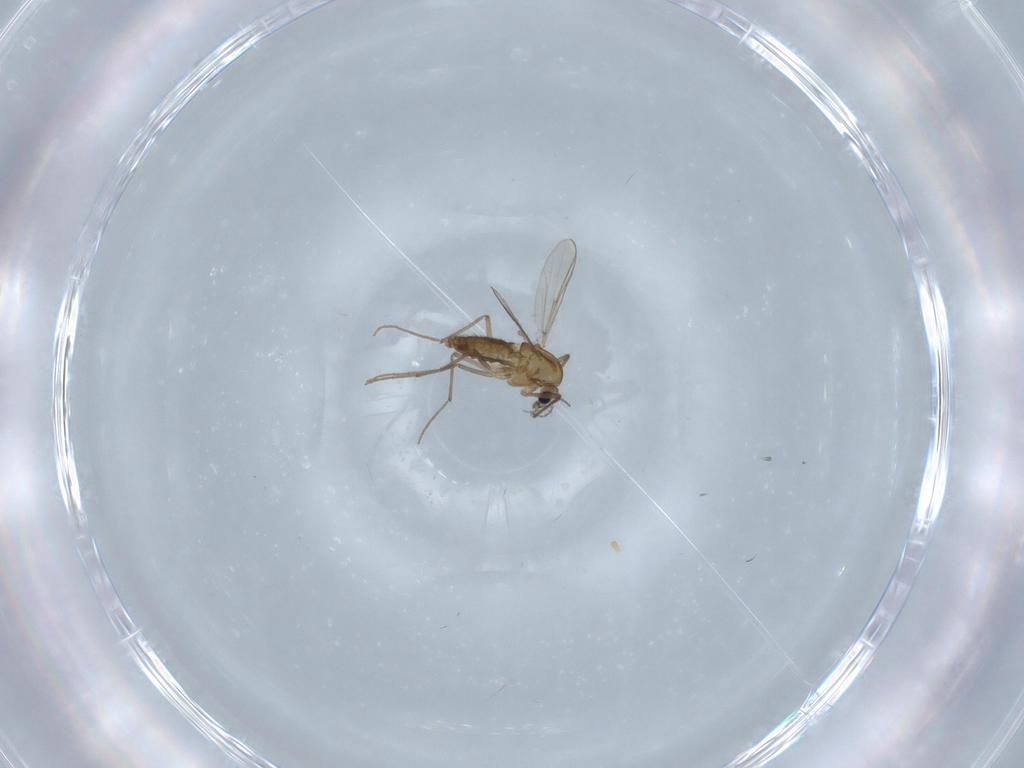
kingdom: Animalia
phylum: Arthropoda
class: Insecta
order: Diptera
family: Chironomidae
